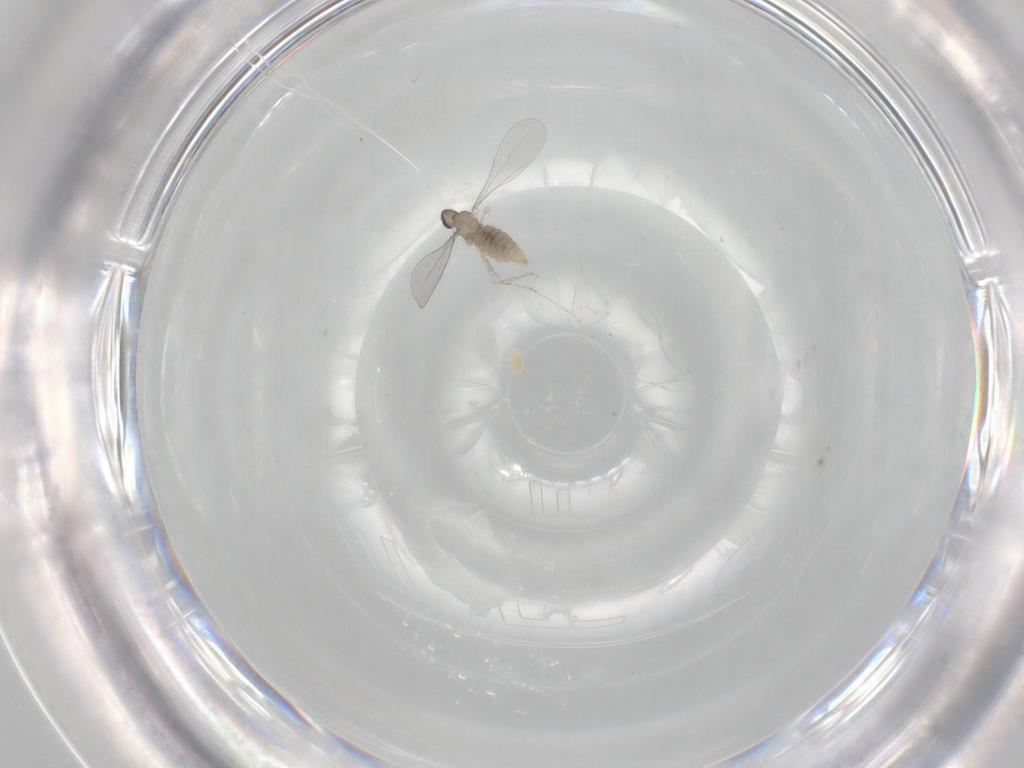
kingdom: Animalia
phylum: Arthropoda
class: Insecta
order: Diptera
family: Cecidomyiidae
